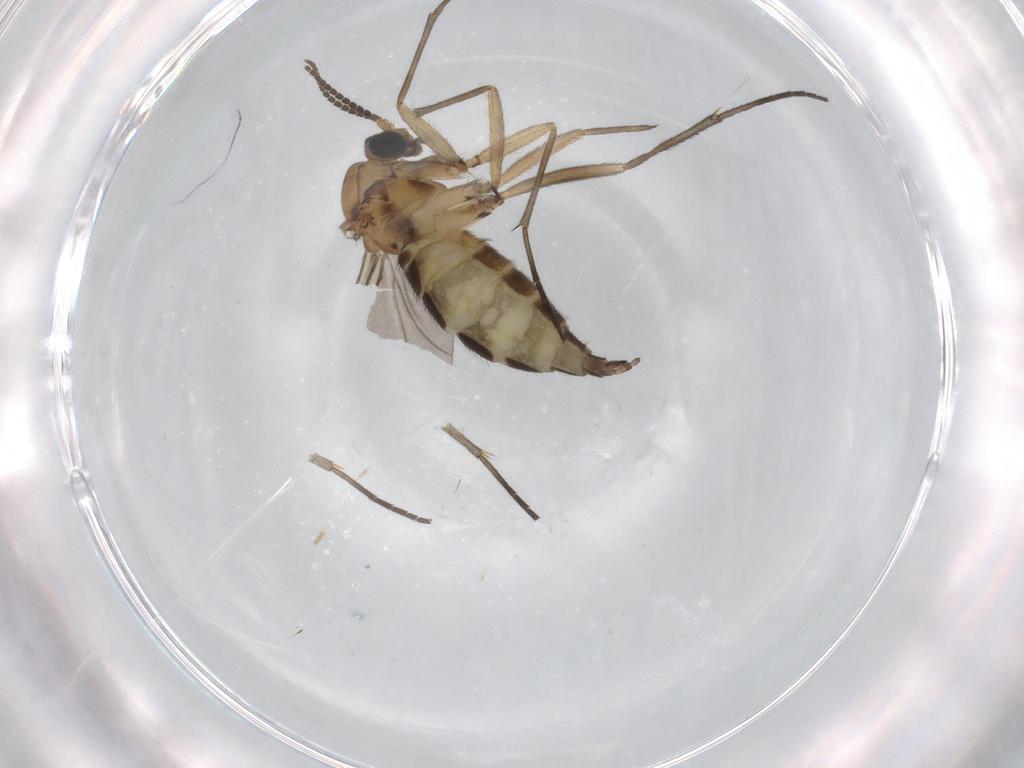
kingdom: Animalia
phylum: Arthropoda
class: Insecta
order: Diptera
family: Sciaridae
